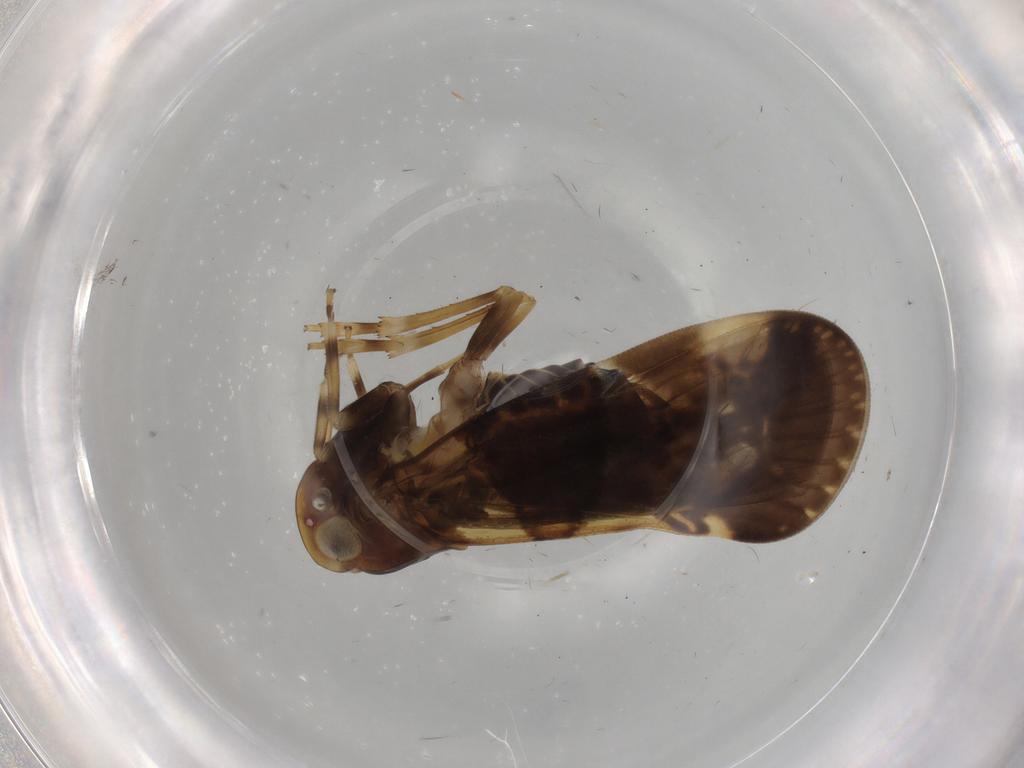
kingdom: Animalia
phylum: Arthropoda
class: Insecta
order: Hemiptera
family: Cixiidae
